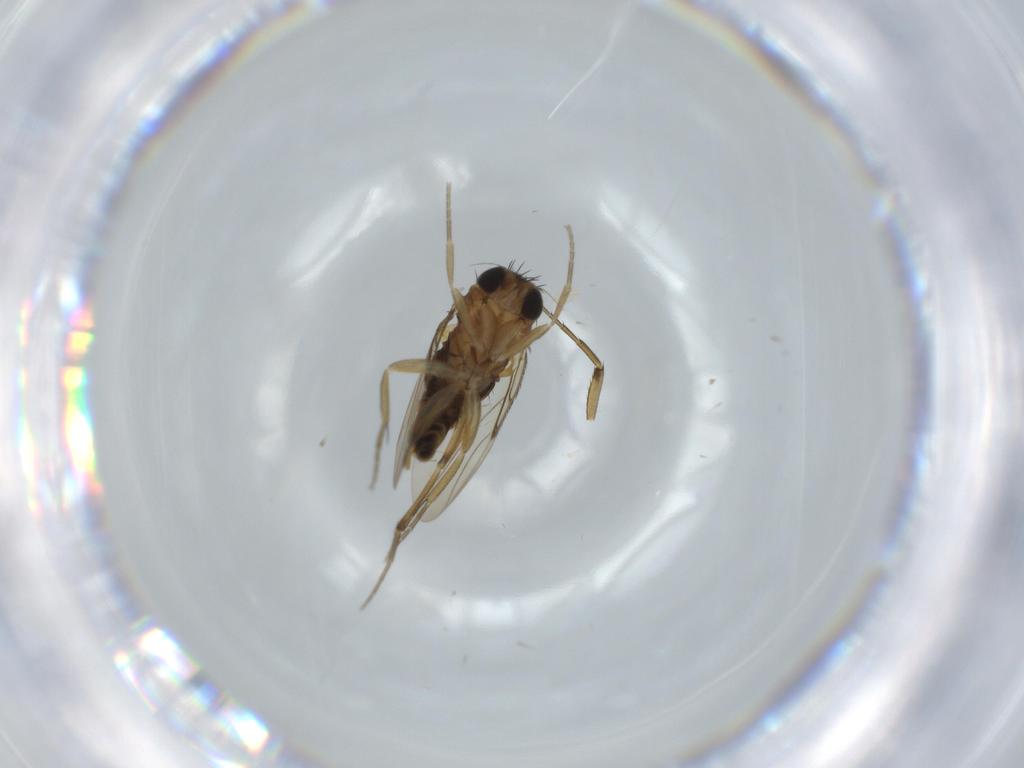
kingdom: Animalia
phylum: Arthropoda
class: Insecta
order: Diptera
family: Phoridae
